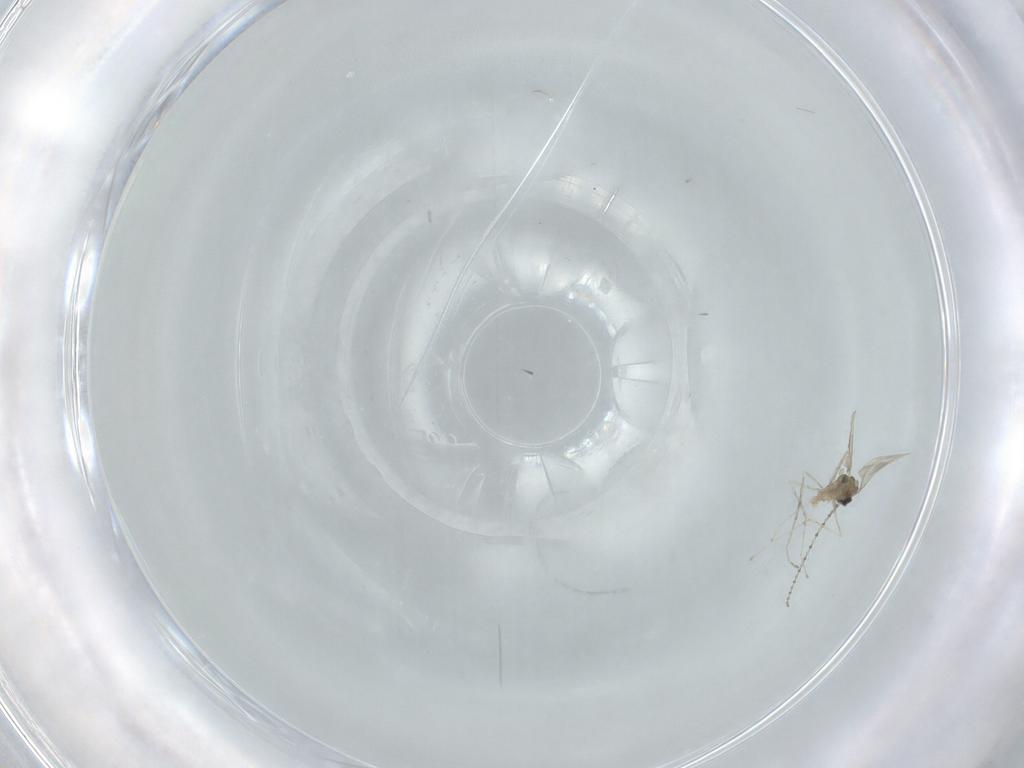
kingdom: Animalia
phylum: Arthropoda
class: Insecta
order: Diptera
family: Cecidomyiidae
